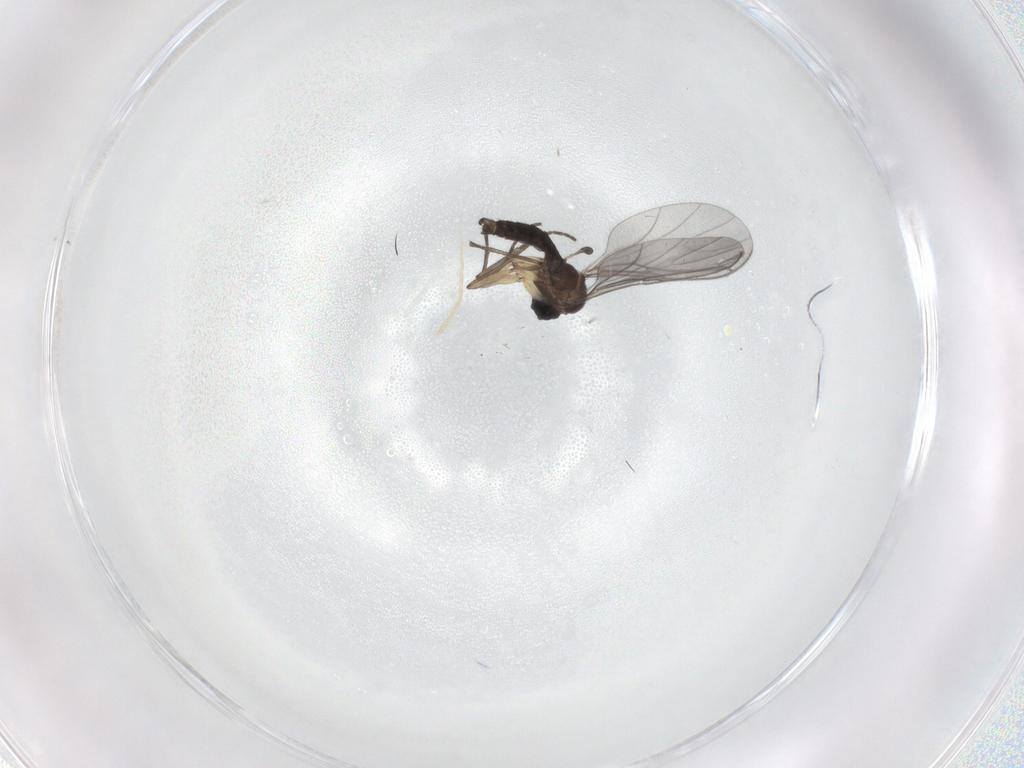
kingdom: Animalia
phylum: Arthropoda
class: Insecta
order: Diptera
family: Sciaridae
